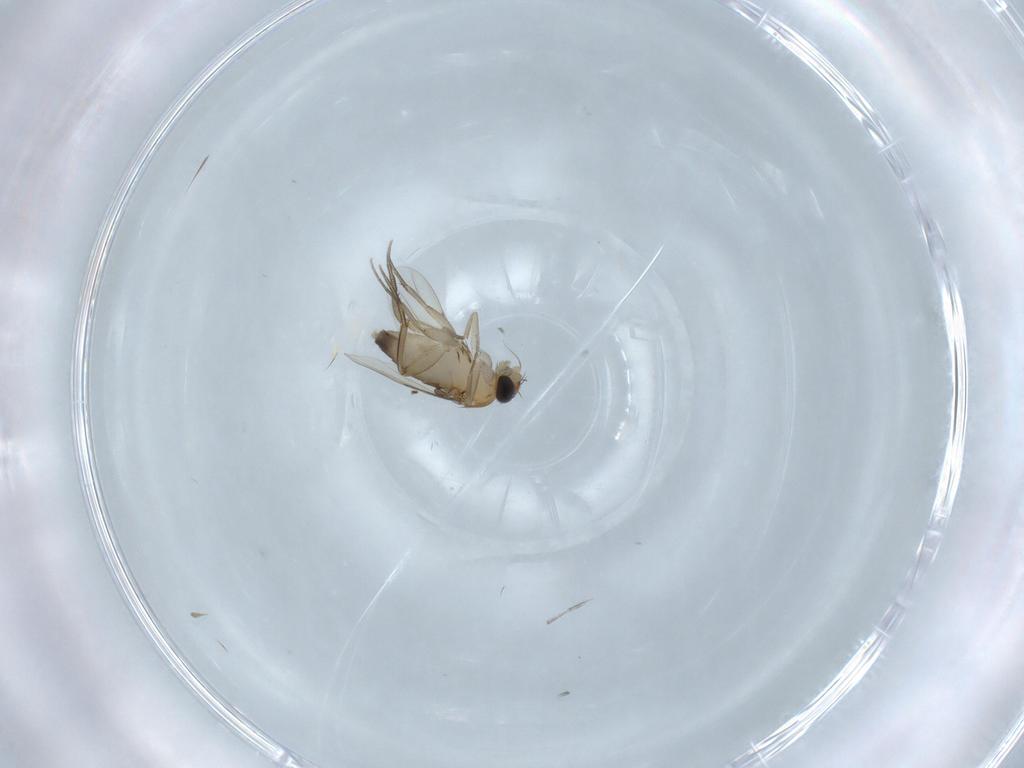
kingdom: Animalia
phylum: Arthropoda
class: Insecta
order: Diptera
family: Phoridae
